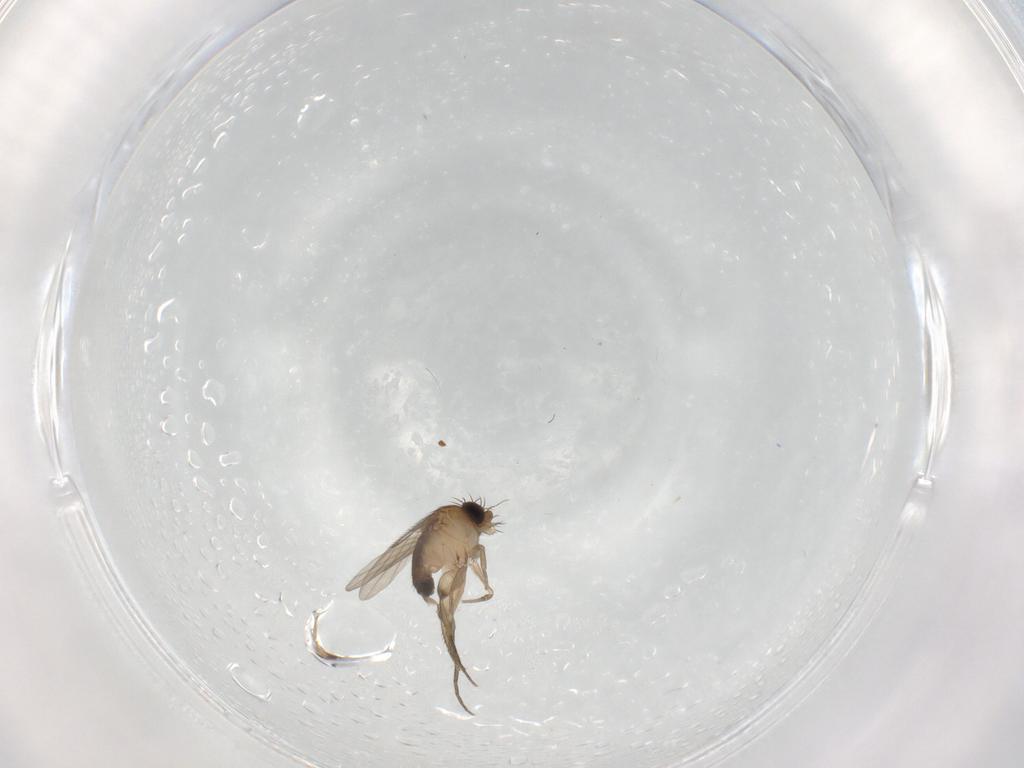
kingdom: Animalia
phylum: Arthropoda
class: Insecta
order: Diptera
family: Phoridae
